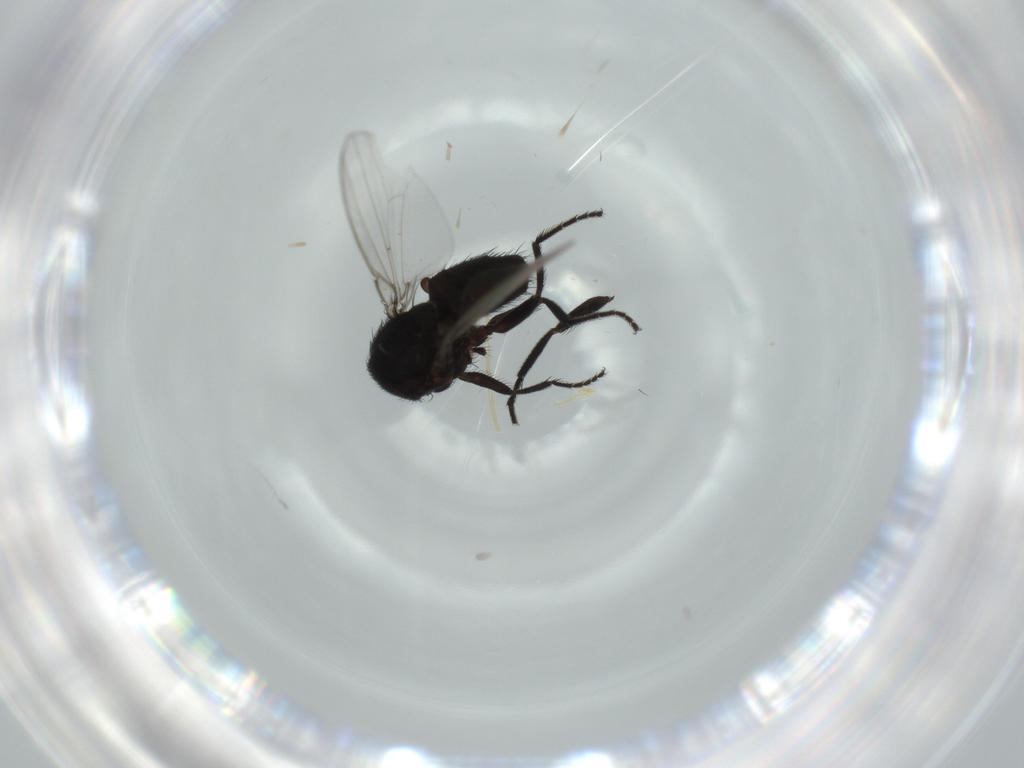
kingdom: Animalia
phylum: Arthropoda
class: Insecta
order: Diptera
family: Milichiidae
